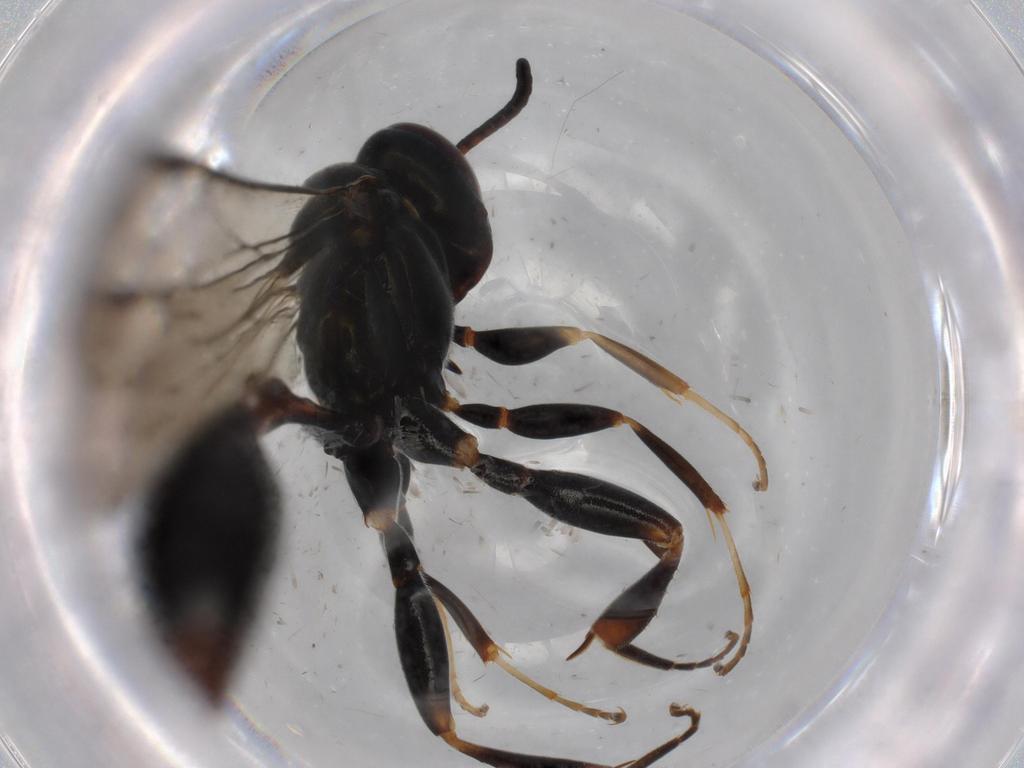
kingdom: Animalia
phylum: Arthropoda
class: Insecta
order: Hymenoptera
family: Crabronidae
